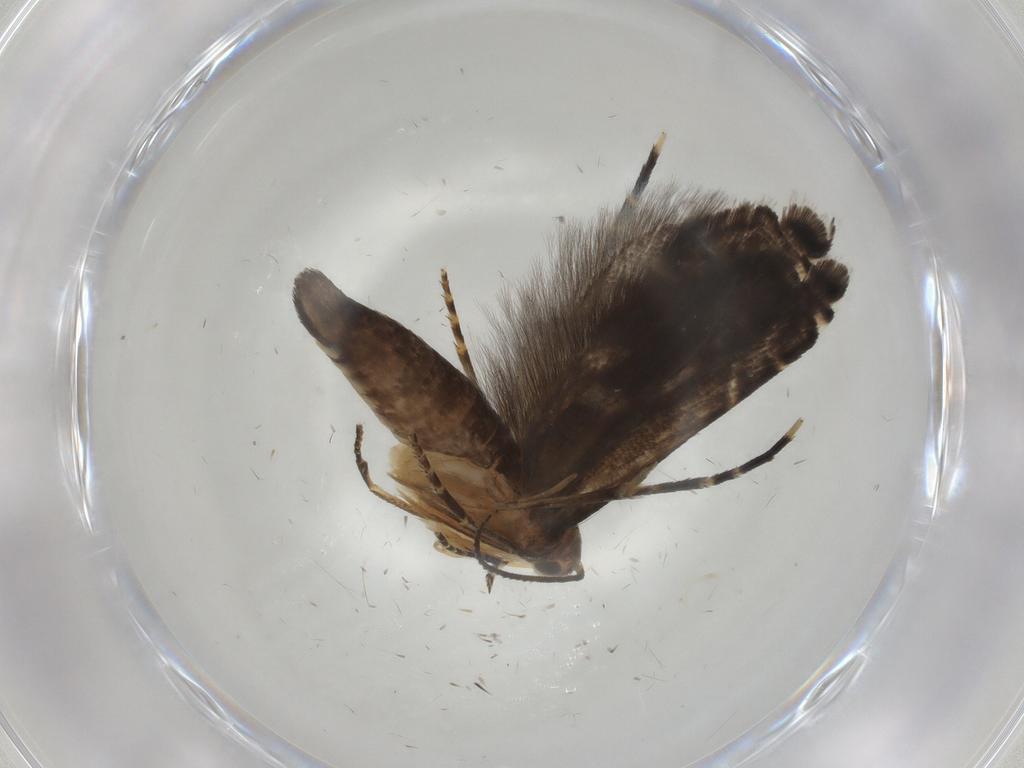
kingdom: Animalia
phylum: Arthropoda
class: Insecta
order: Lepidoptera
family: Glyphipterigidae
